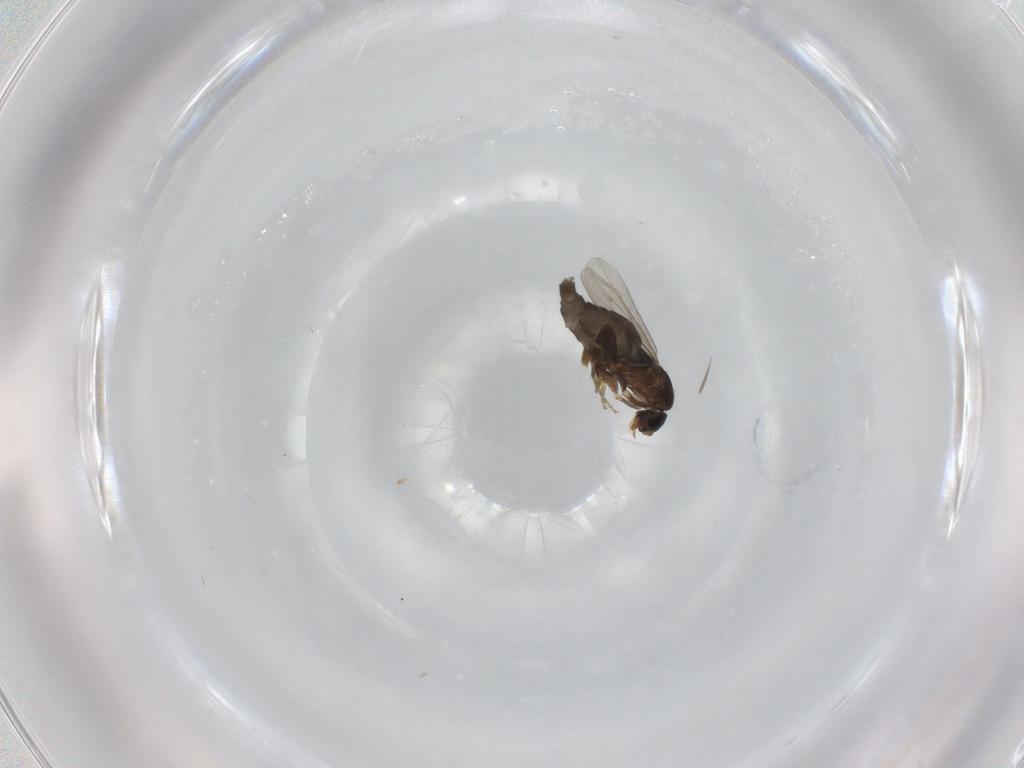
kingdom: Animalia
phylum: Arthropoda
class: Insecta
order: Diptera
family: Phoridae
